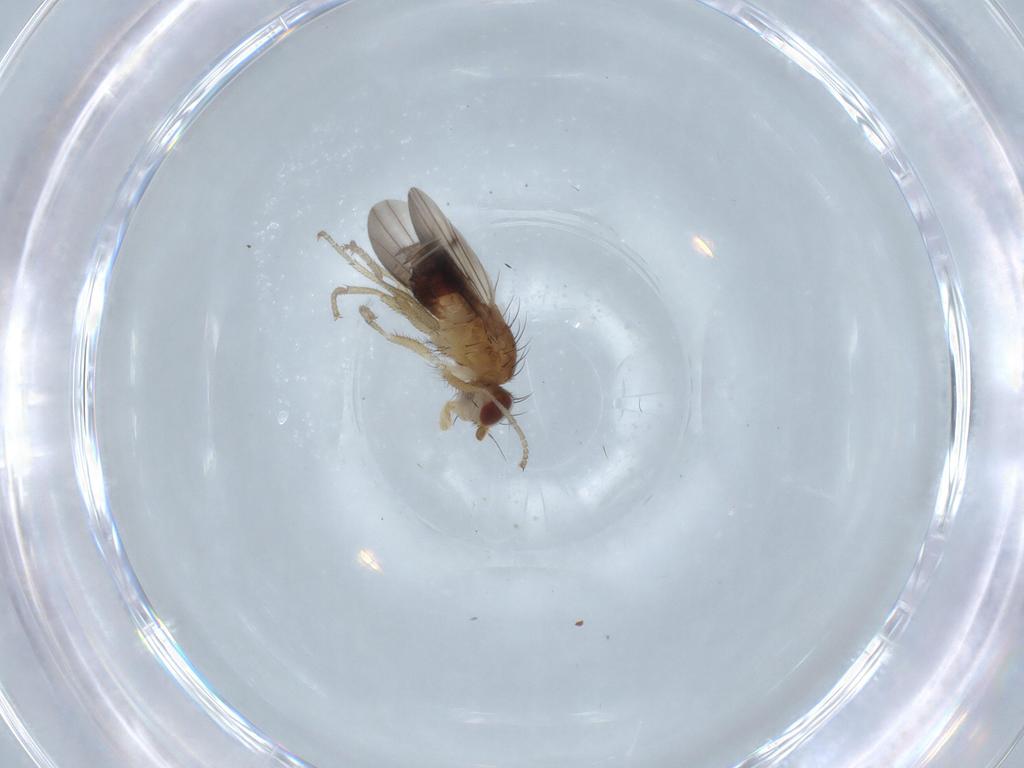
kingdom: Animalia
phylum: Arthropoda
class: Insecta
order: Diptera
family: Heleomyzidae
